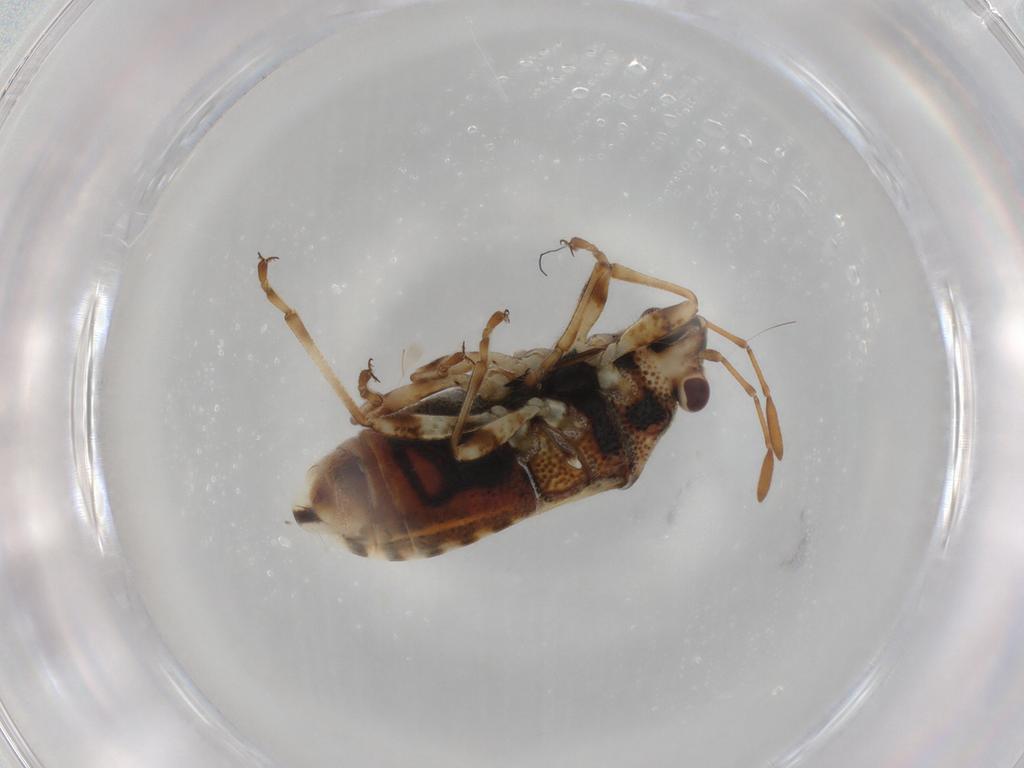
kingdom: Animalia
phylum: Arthropoda
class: Insecta
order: Hemiptera
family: Lygaeidae
